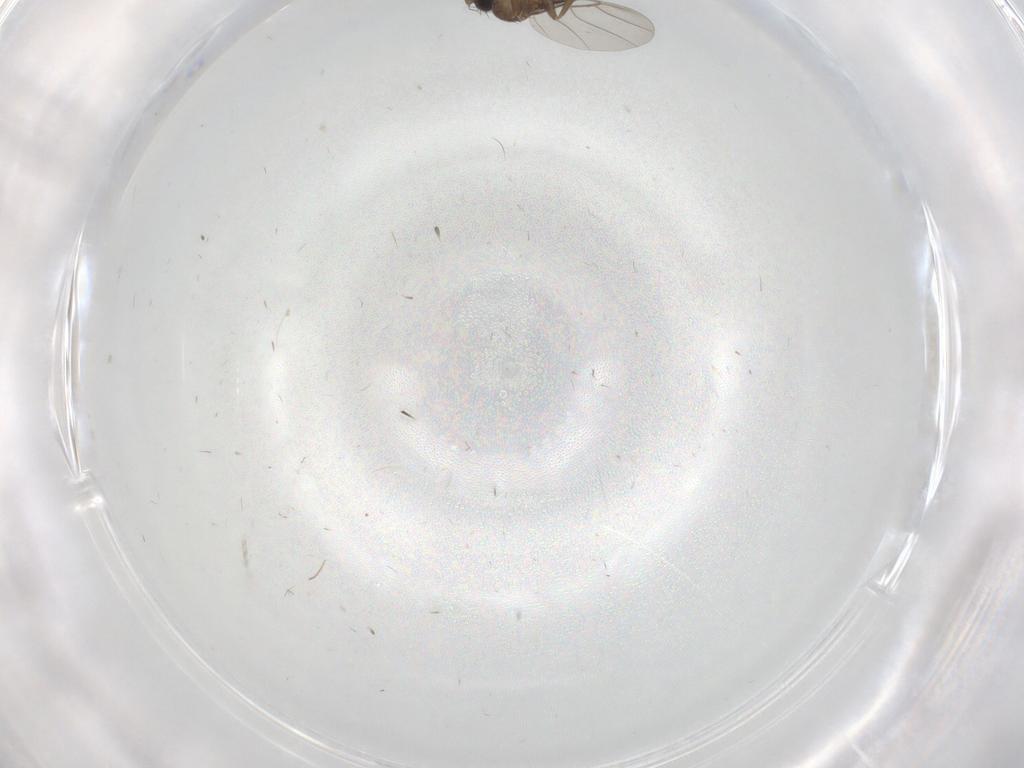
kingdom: Animalia
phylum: Arthropoda
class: Insecta
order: Diptera
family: Phoridae
